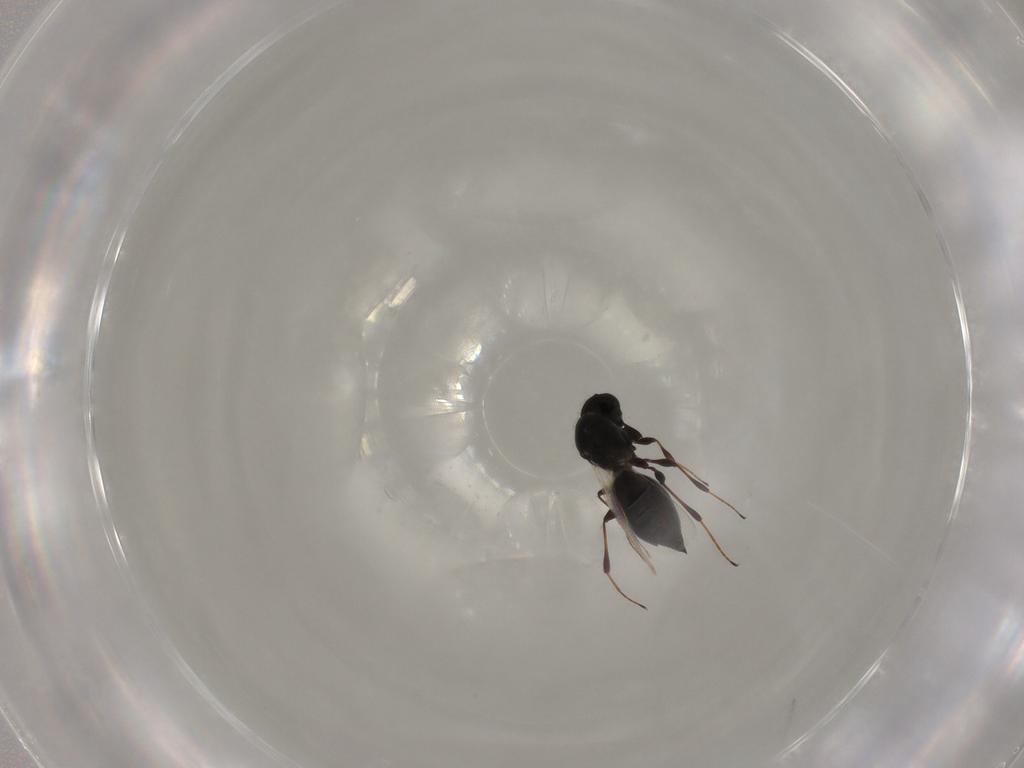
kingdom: Animalia
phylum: Arthropoda
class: Insecta
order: Hymenoptera
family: Platygastridae
